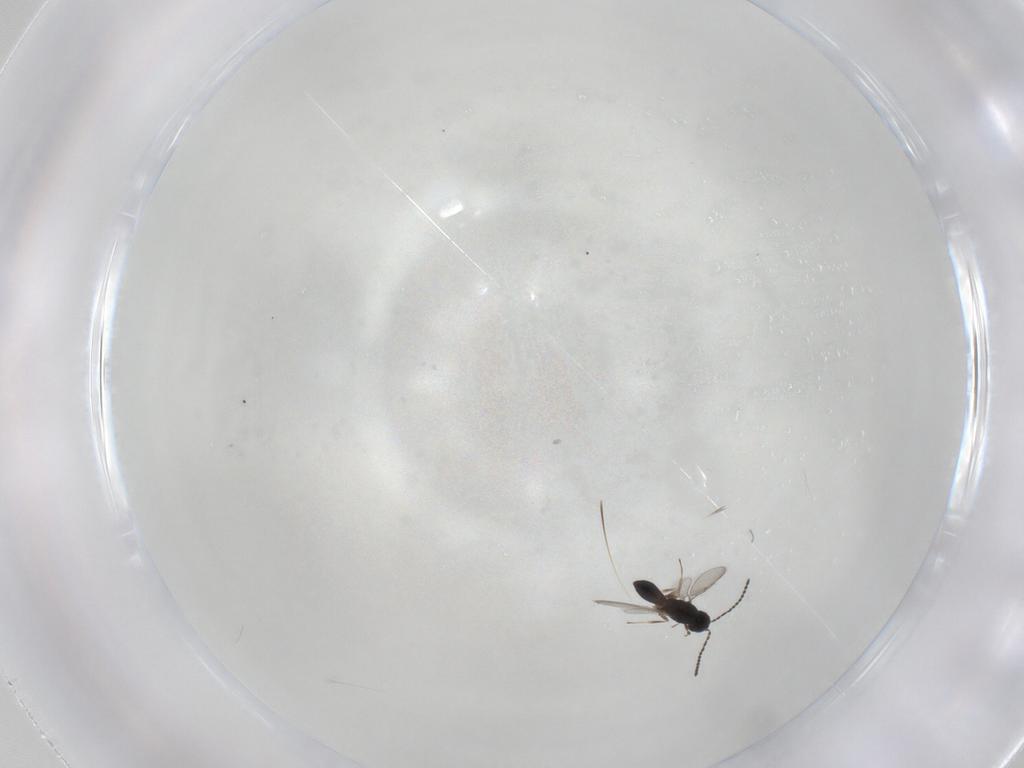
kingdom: Animalia
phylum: Arthropoda
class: Insecta
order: Hymenoptera
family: Scelionidae
